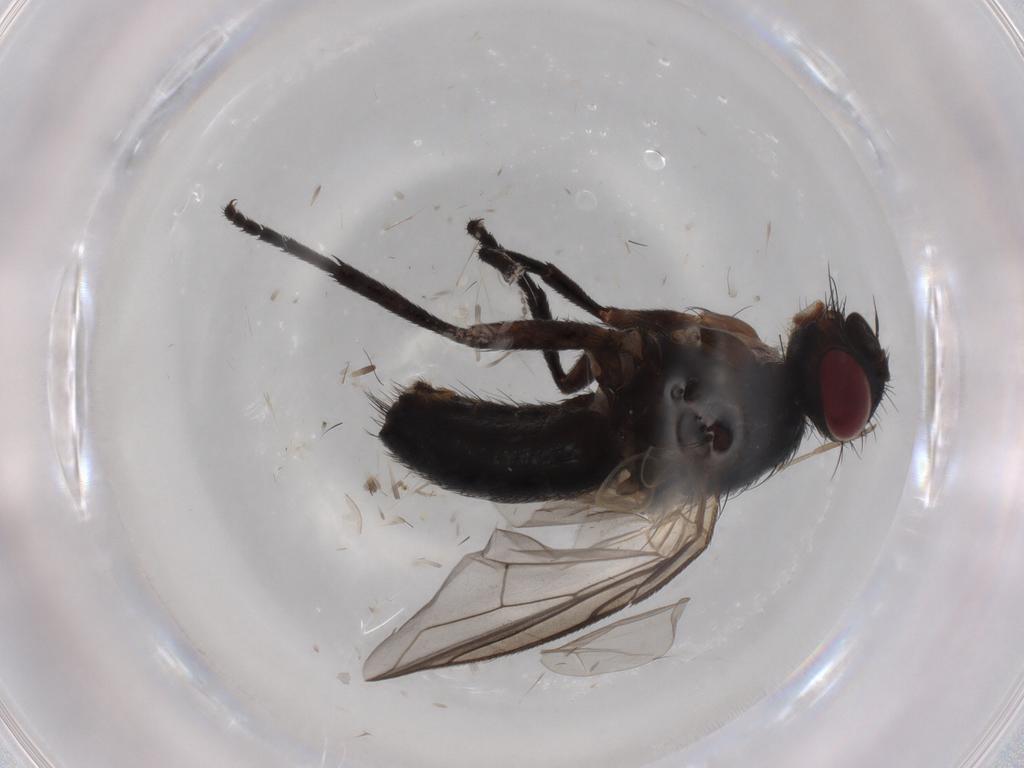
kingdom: Animalia
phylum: Arthropoda
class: Insecta
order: Diptera
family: Tachinidae
